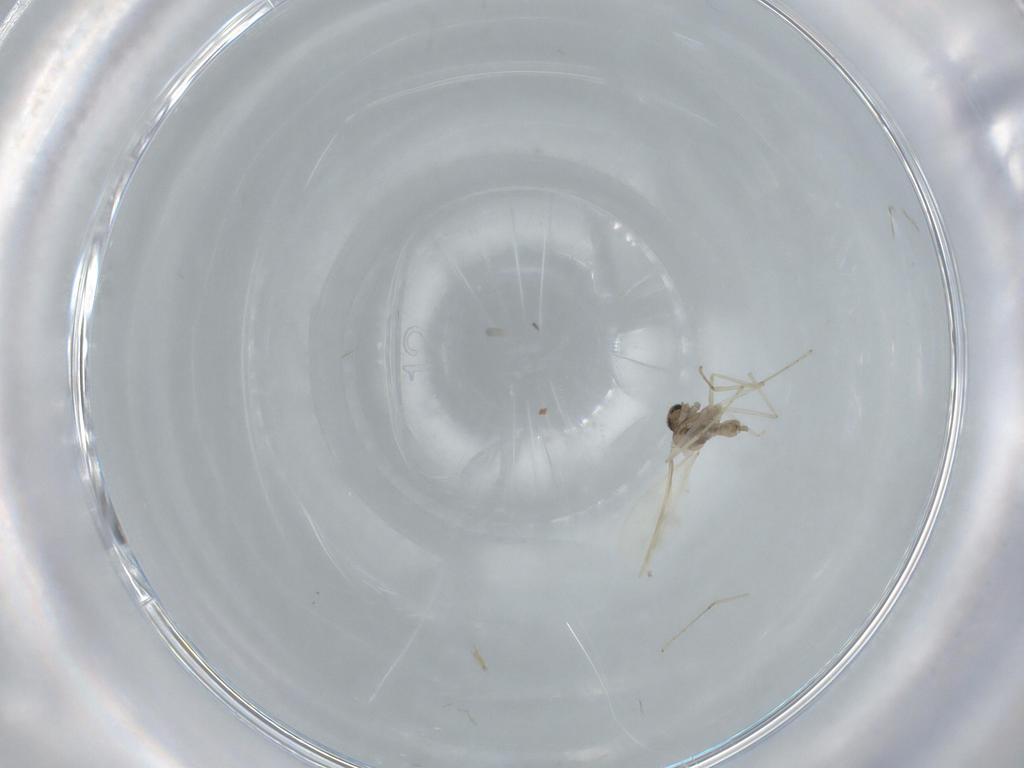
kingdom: Animalia
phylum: Arthropoda
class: Insecta
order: Diptera
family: Cecidomyiidae
